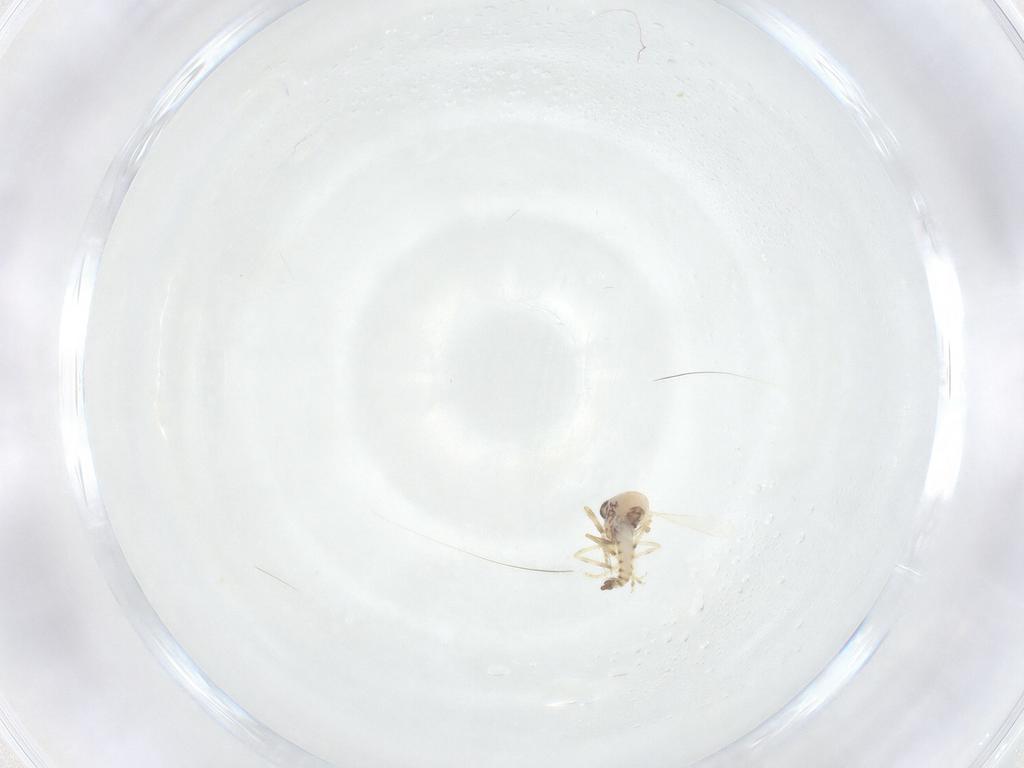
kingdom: Animalia
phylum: Arthropoda
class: Insecta
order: Diptera
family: Ceratopogonidae
